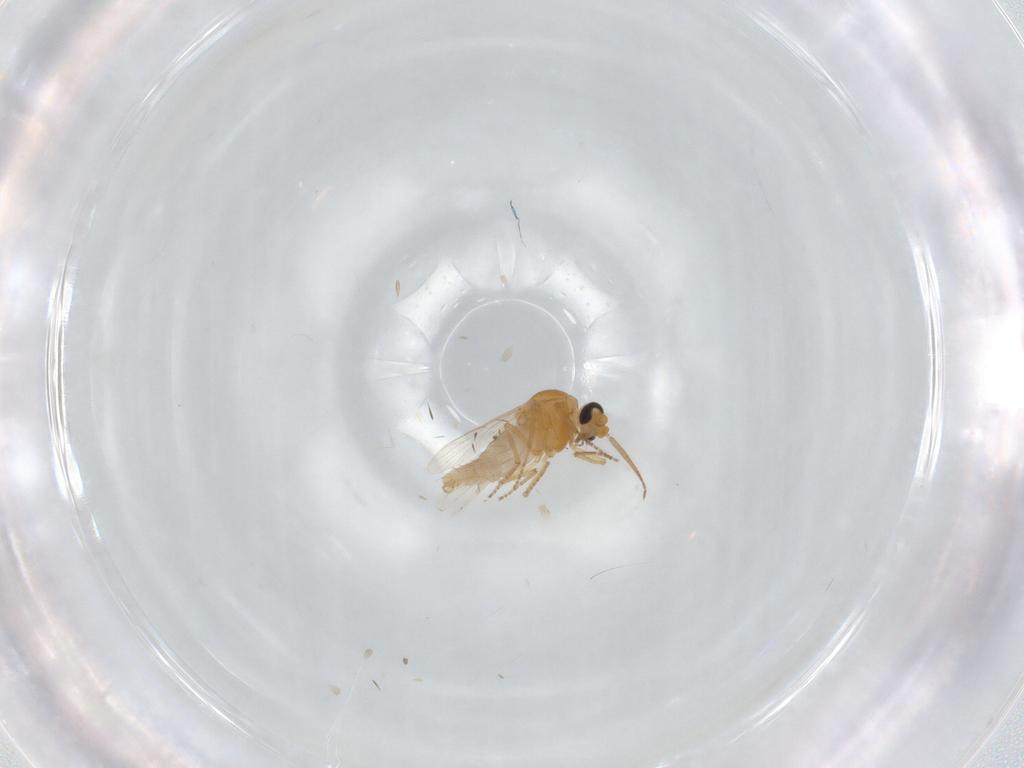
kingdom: Animalia
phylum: Arthropoda
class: Insecta
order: Diptera
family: Ceratopogonidae
